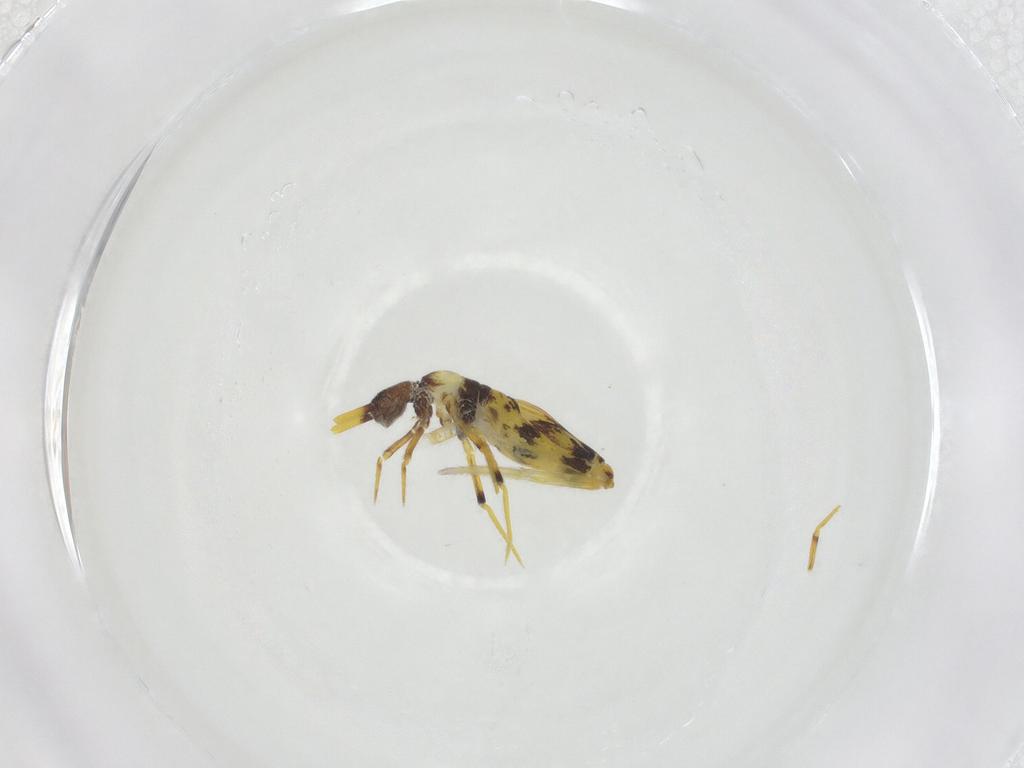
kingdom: Animalia
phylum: Arthropoda
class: Collembola
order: Entomobryomorpha
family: Entomobryidae
